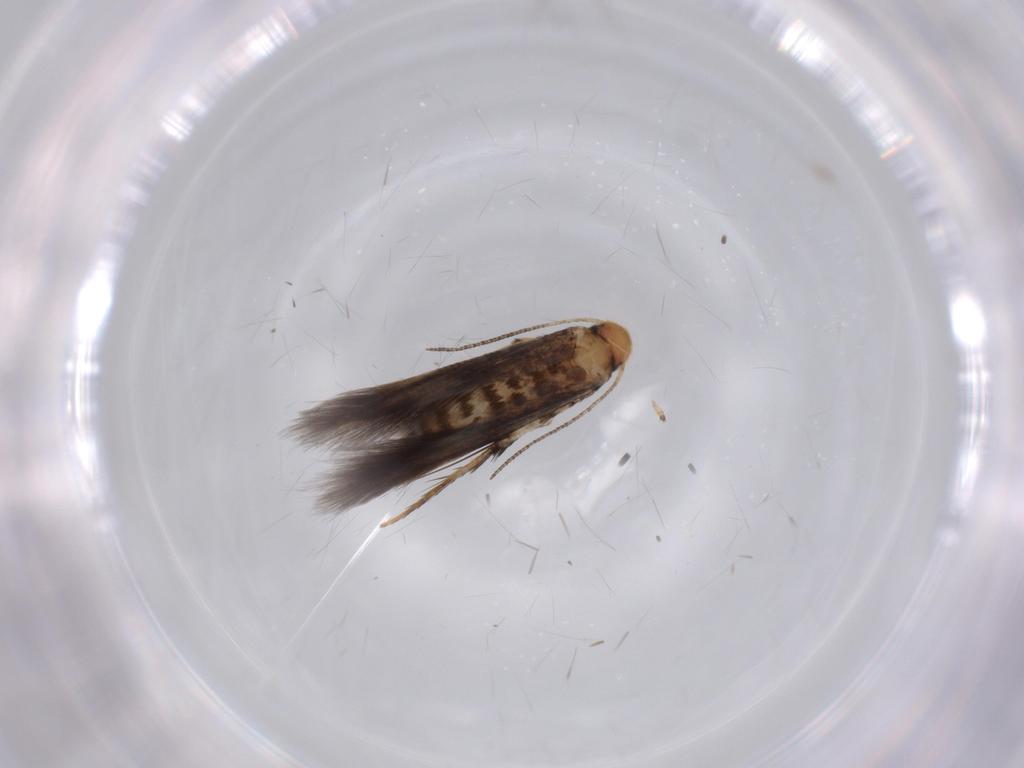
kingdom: Animalia
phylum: Arthropoda
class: Insecta
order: Lepidoptera
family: Gelechiidae
